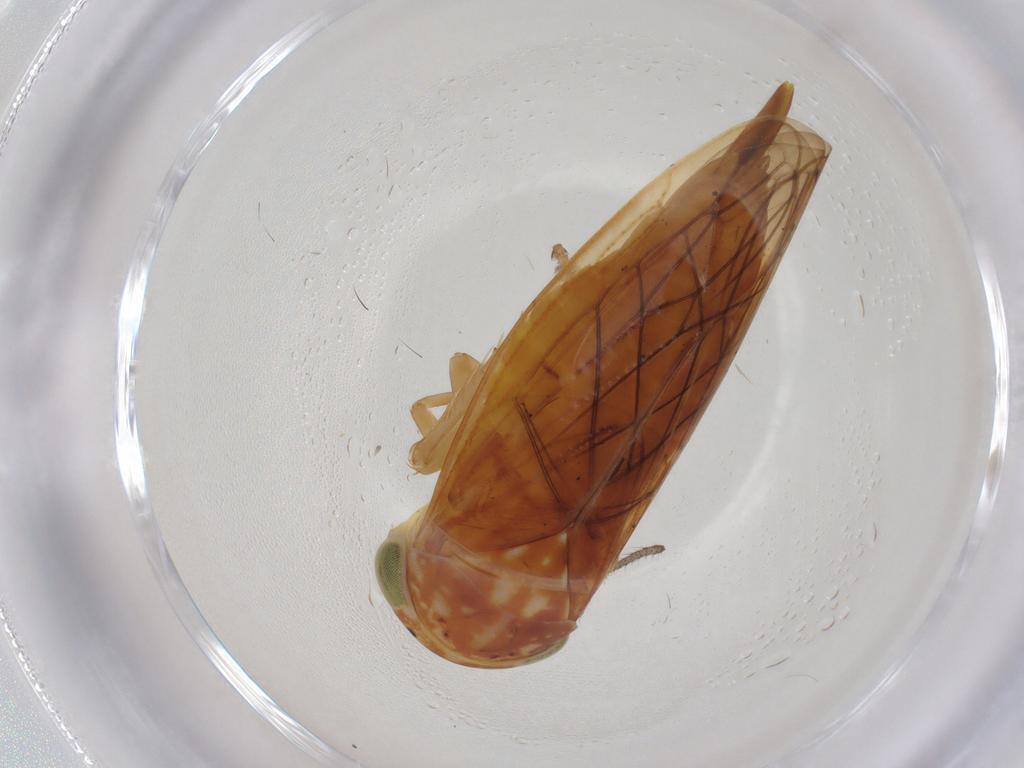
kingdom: Animalia
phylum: Arthropoda
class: Insecta
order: Hemiptera
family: Cicadellidae
